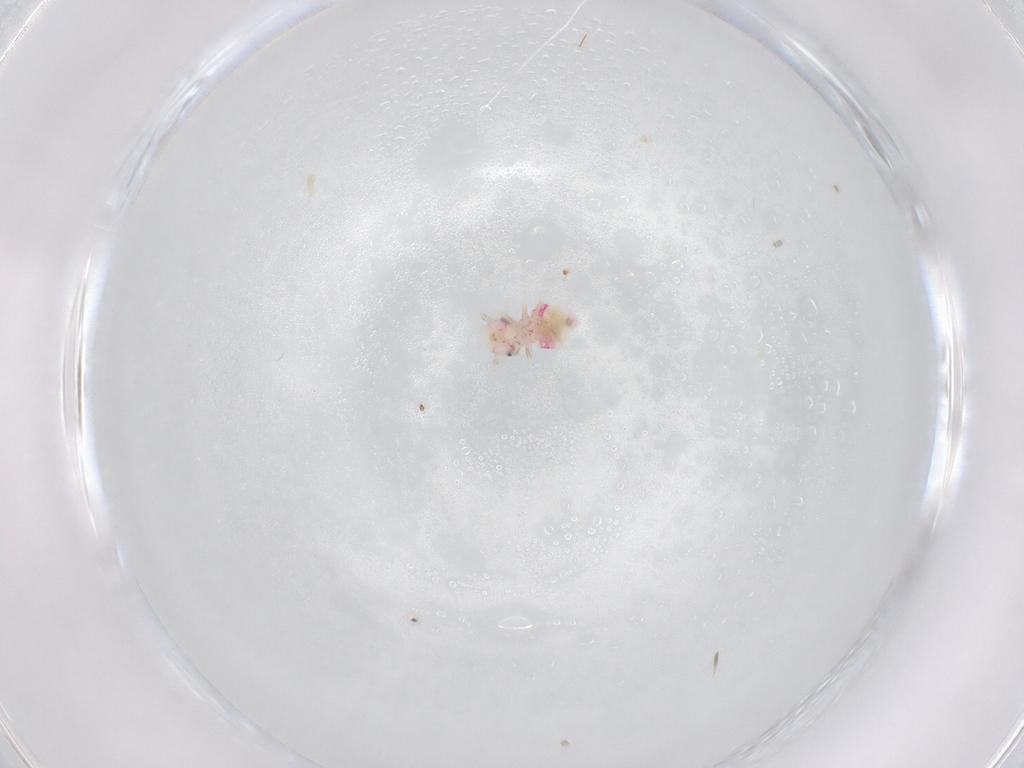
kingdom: Animalia
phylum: Arthropoda
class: Insecta
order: Psocodea
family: Hemipsocidae
